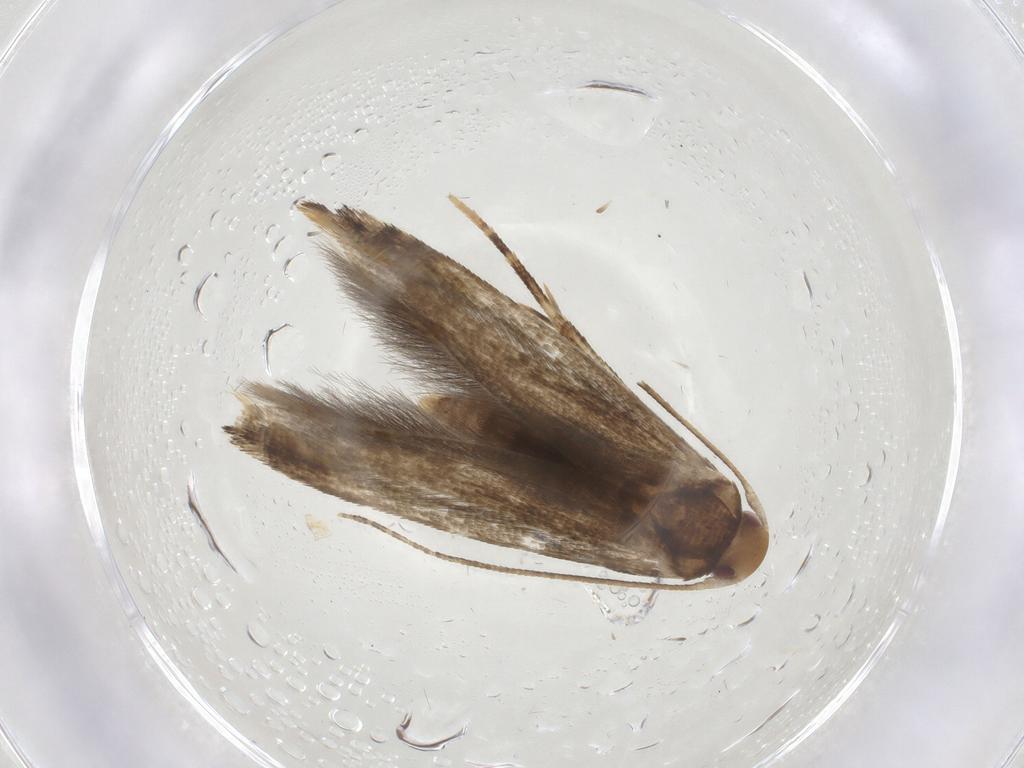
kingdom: Animalia
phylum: Arthropoda
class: Insecta
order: Lepidoptera
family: Momphidae
